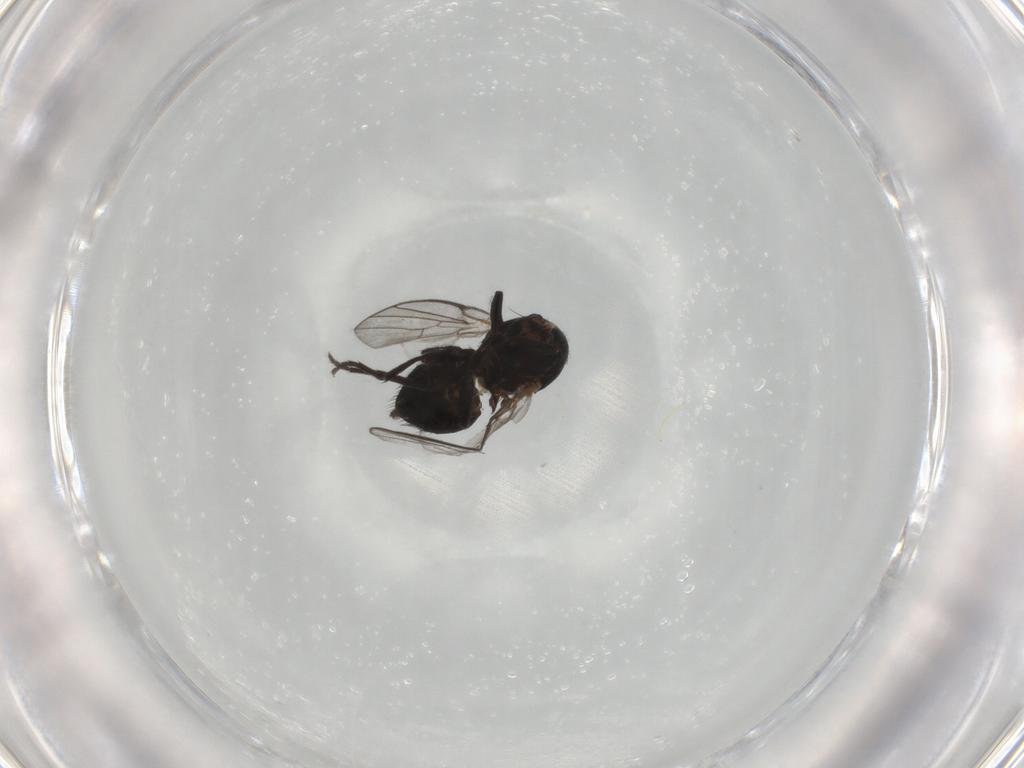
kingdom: Animalia
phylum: Arthropoda
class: Insecta
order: Diptera
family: Agromyzidae
